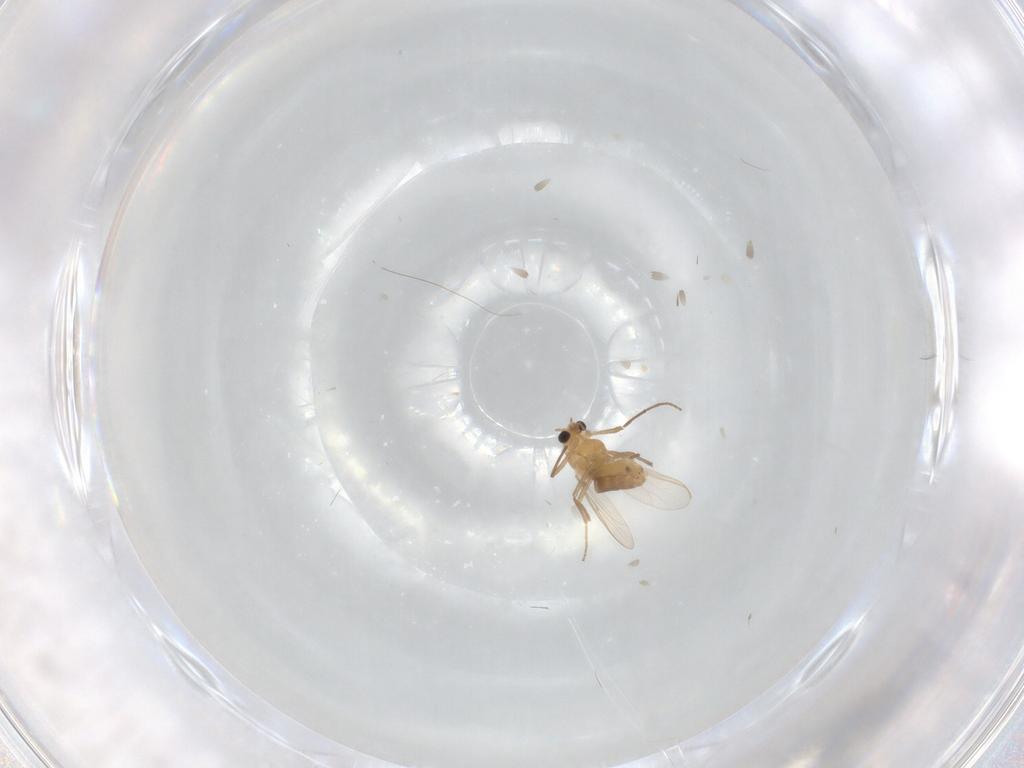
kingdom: Animalia
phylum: Arthropoda
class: Insecta
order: Diptera
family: Chironomidae
